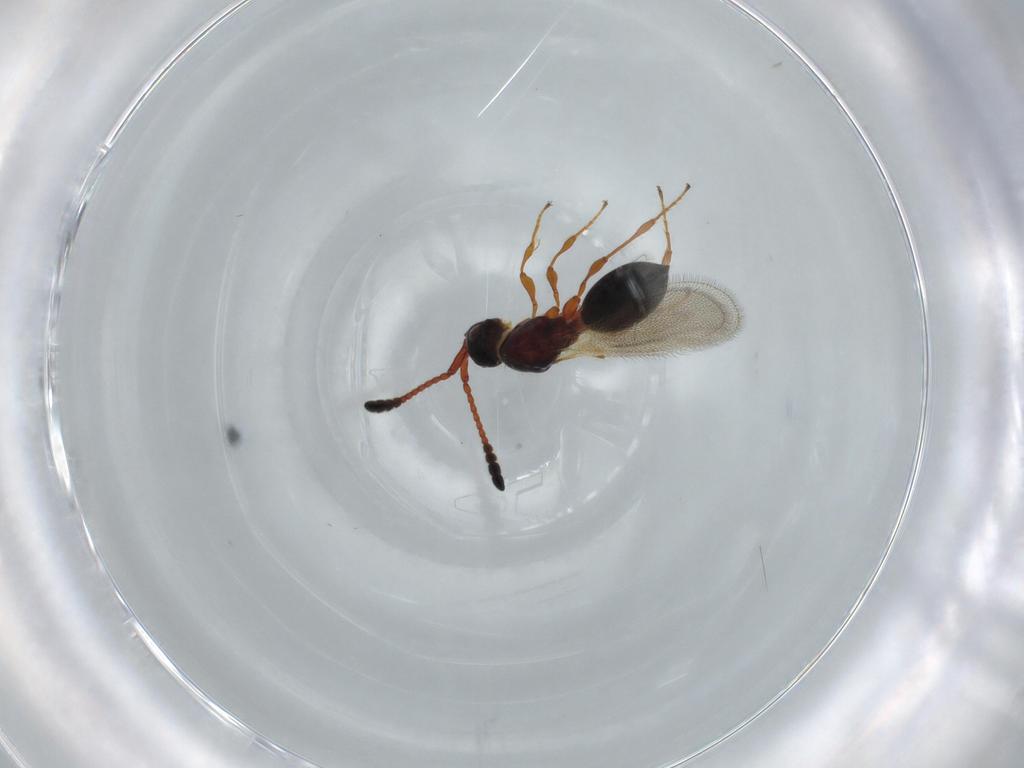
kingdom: Animalia
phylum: Arthropoda
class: Insecta
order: Hymenoptera
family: Diapriidae
